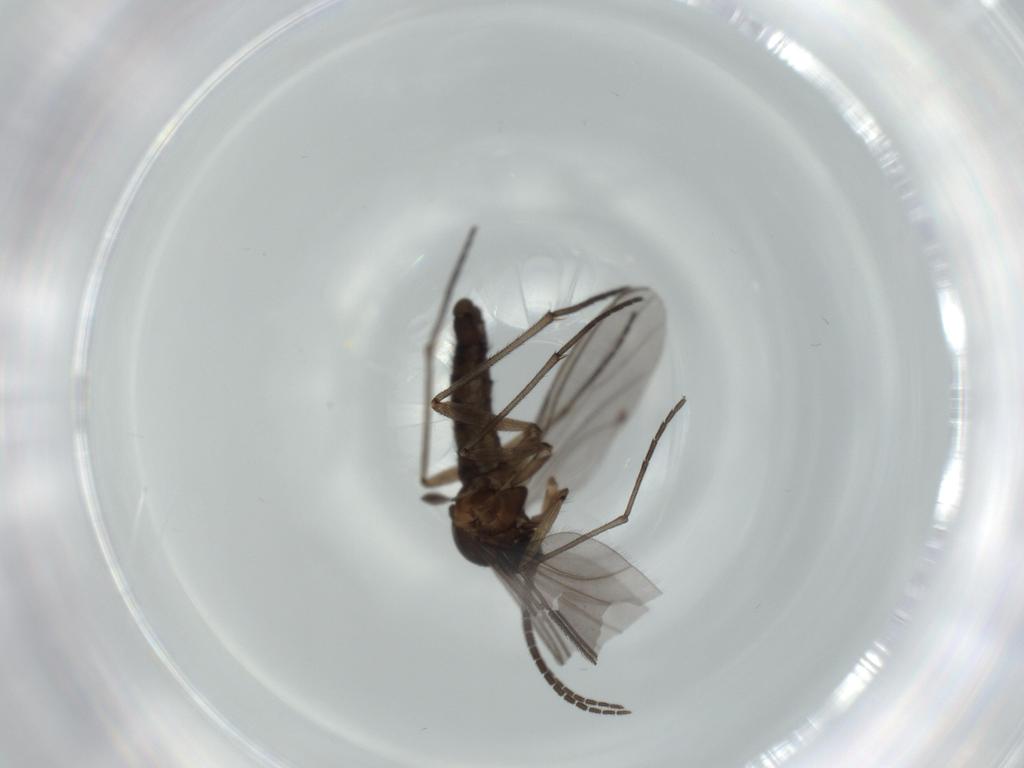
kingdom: Animalia
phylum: Arthropoda
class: Insecta
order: Diptera
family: Sciaridae
